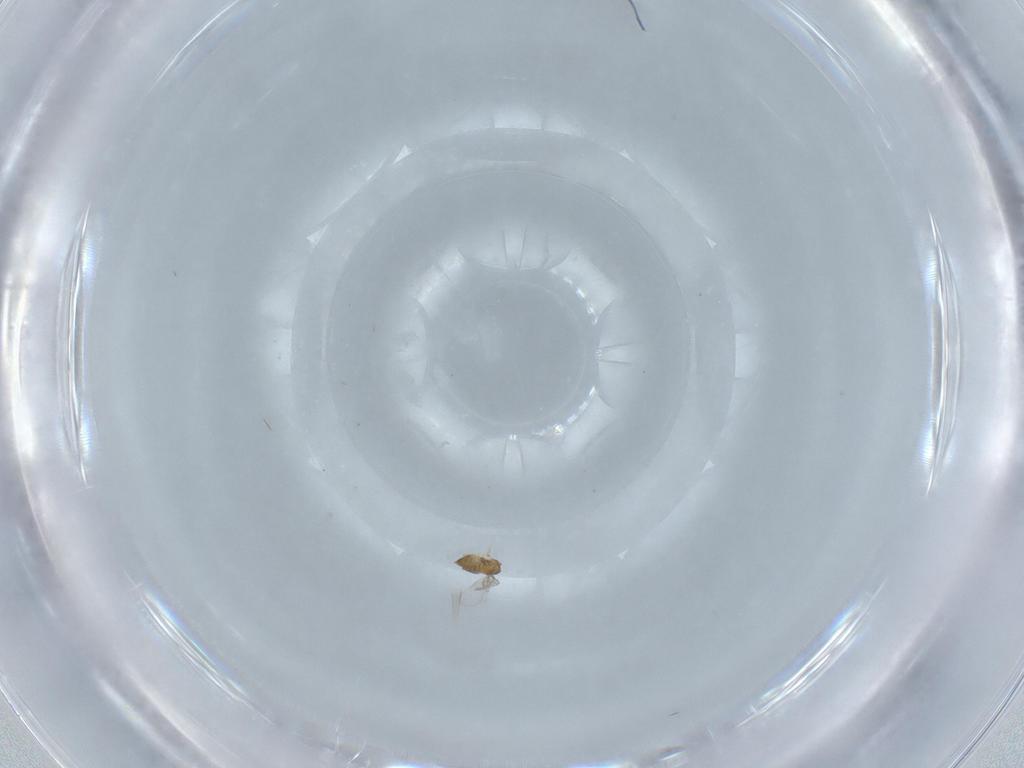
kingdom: Animalia
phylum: Arthropoda
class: Insecta
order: Hymenoptera
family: Trichogrammatidae
